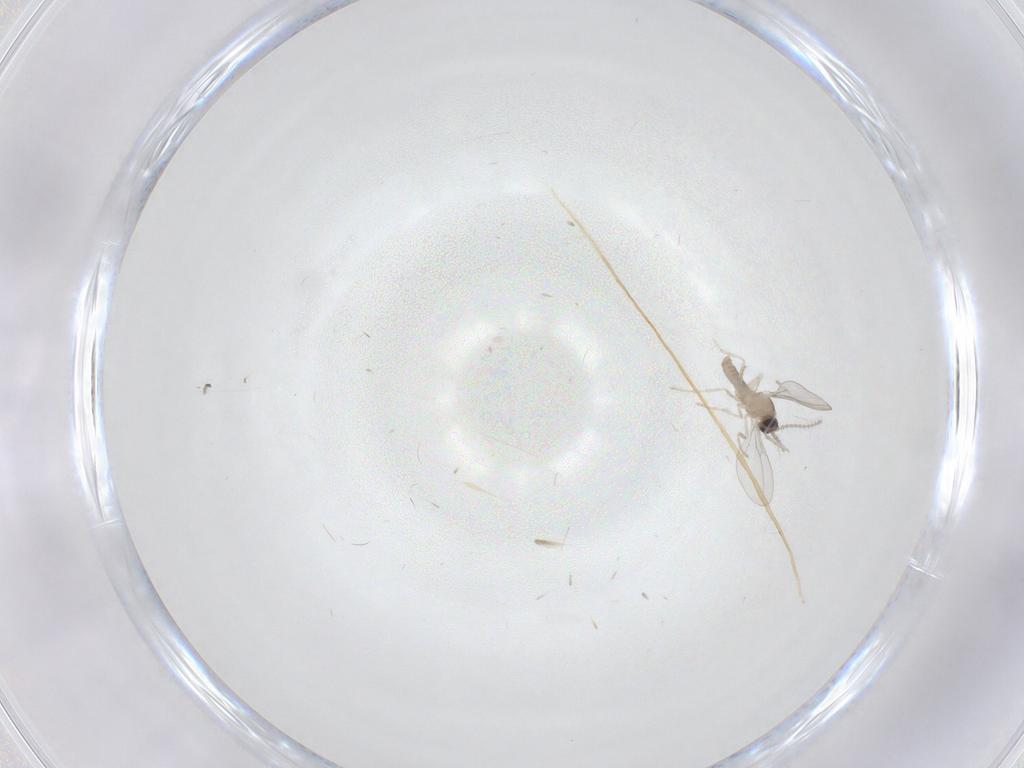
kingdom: Animalia
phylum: Arthropoda
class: Insecta
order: Diptera
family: Cecidomyiidae
